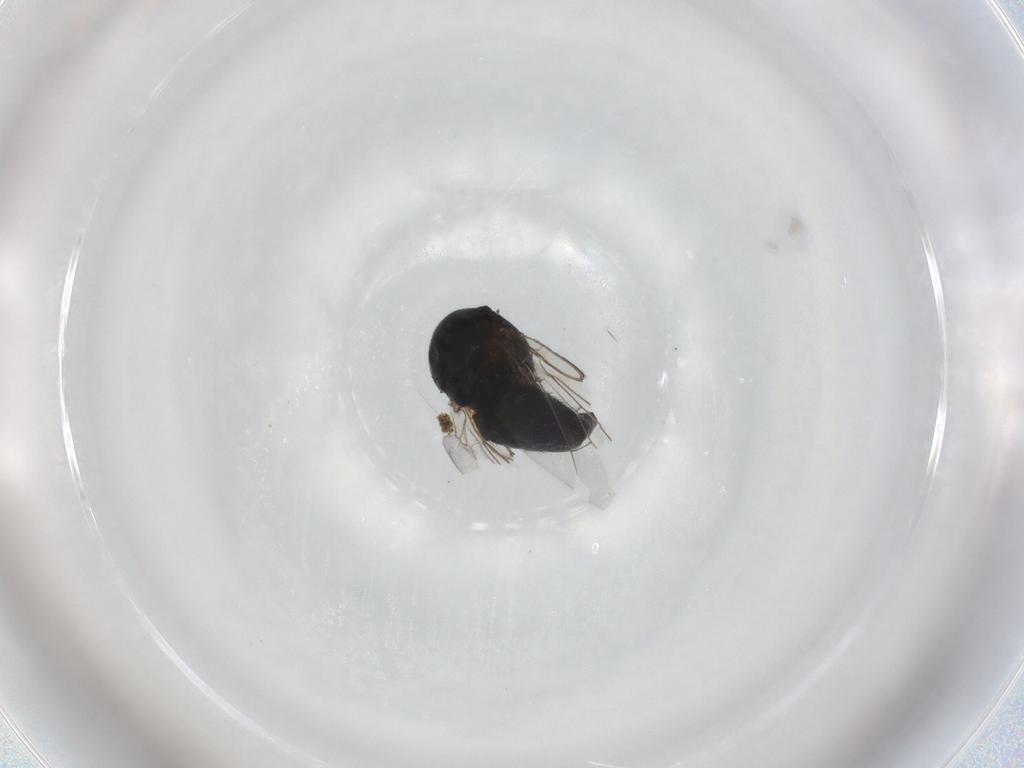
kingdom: Animalia
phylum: Arthropoda
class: Insecta
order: Diptera
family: Agromyzidae
